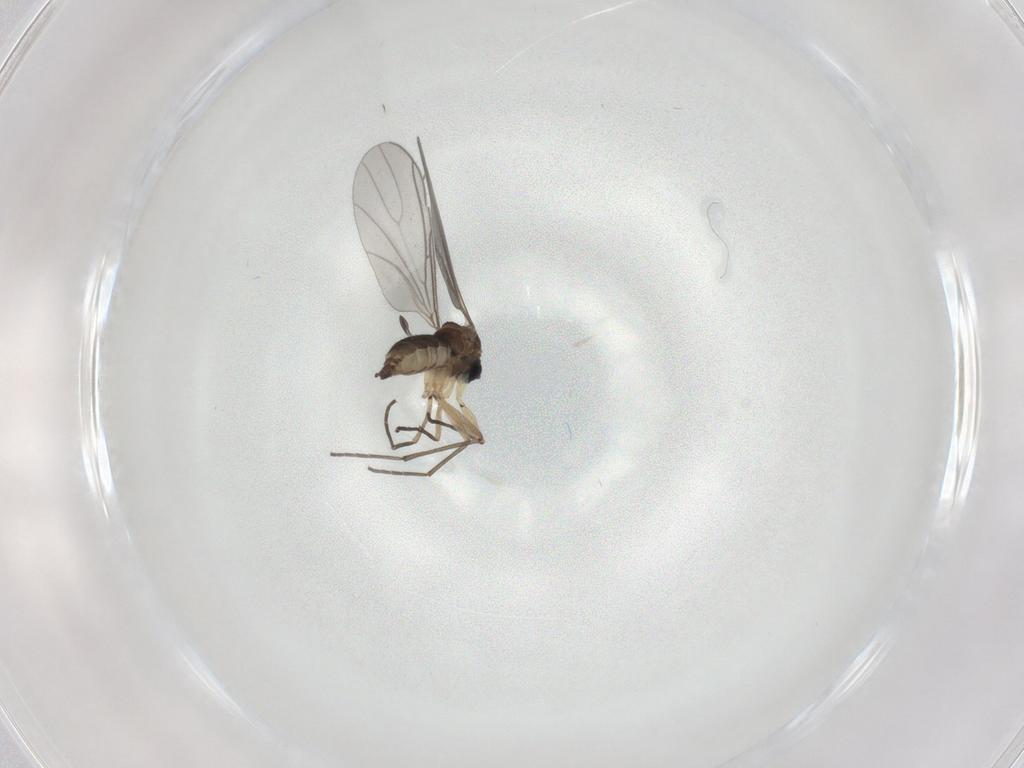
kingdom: Animalia
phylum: Arthropoda
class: Insecta
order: Diptera
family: Sciaridae
